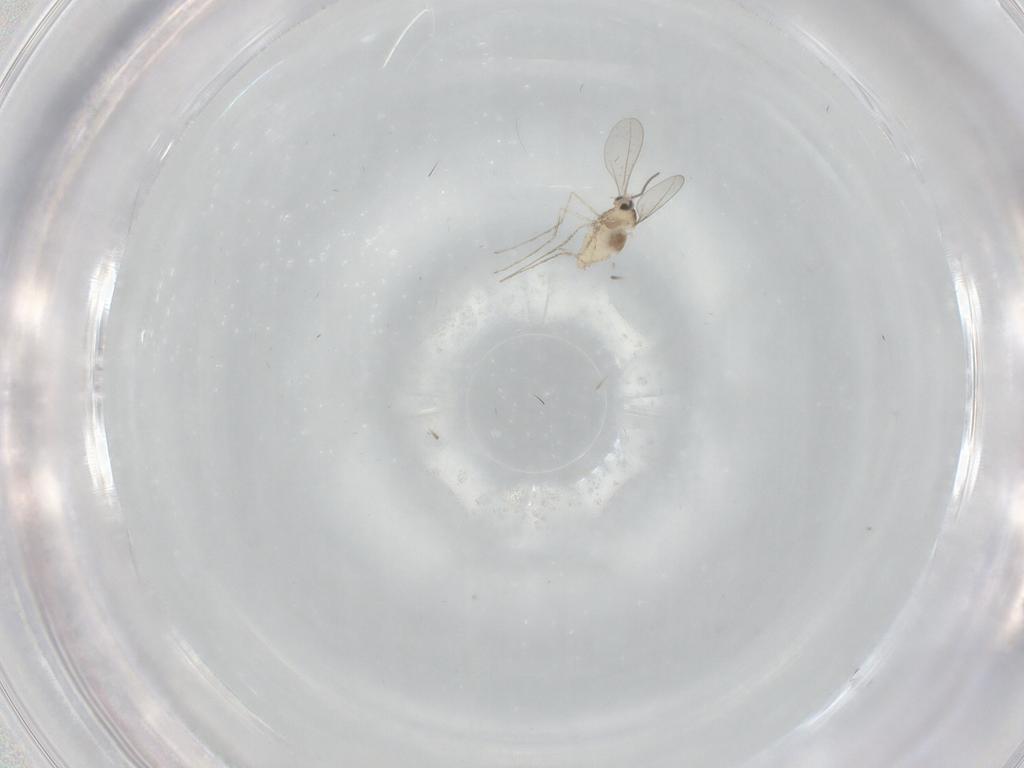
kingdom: Animalia
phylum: Arthropoda
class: Insecta
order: Diptera
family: Cecidomyiidae
